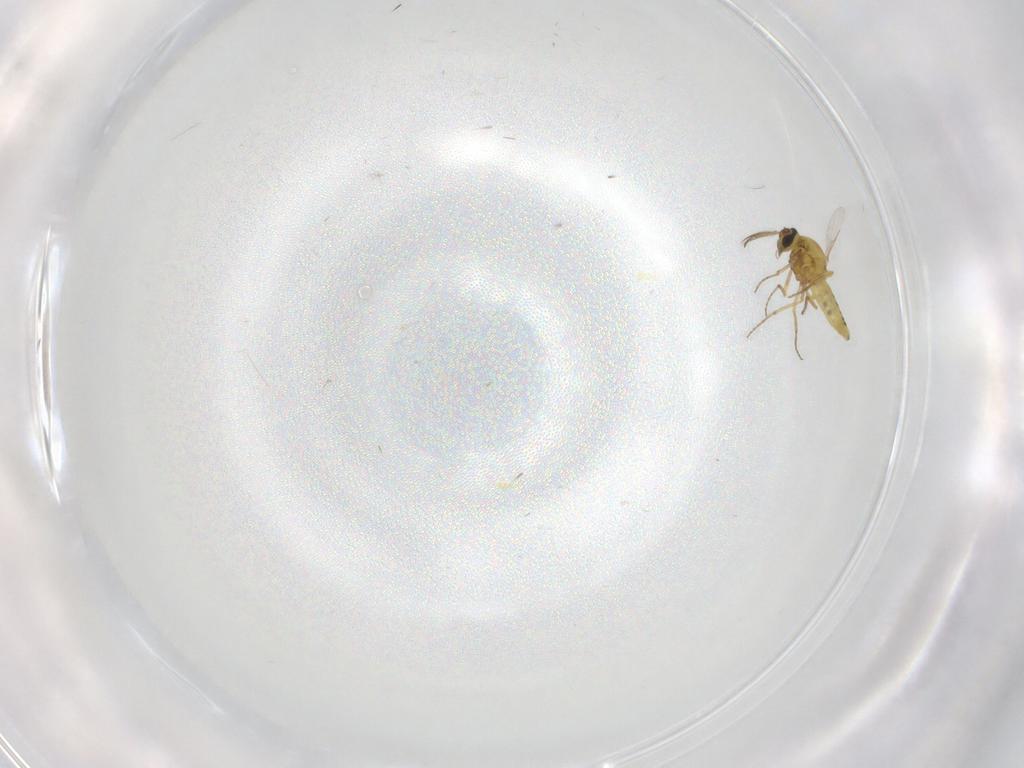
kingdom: Animalia
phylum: Arthropoda
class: Insecta
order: Diptera
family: Ceratopogonidae
